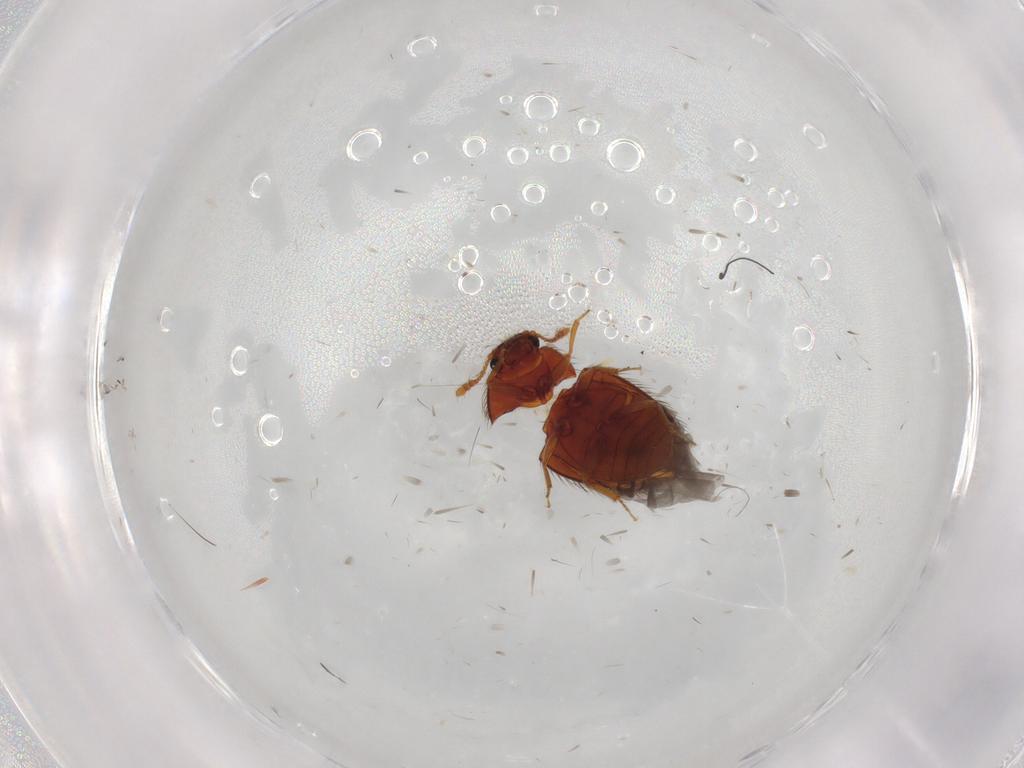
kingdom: Animalia
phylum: Arthropoda
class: Insecta
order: Coleoptera
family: Biphyllidae
